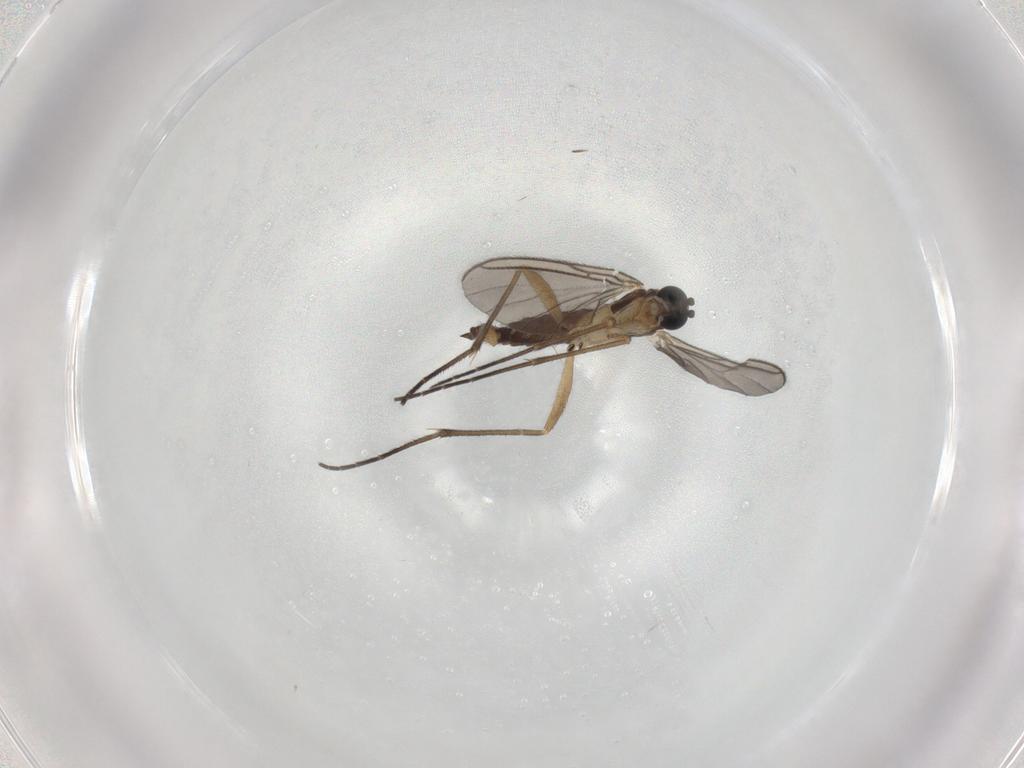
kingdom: Animalia
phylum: Arthropoda
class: Insecta
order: Diptera
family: Sciaridae
